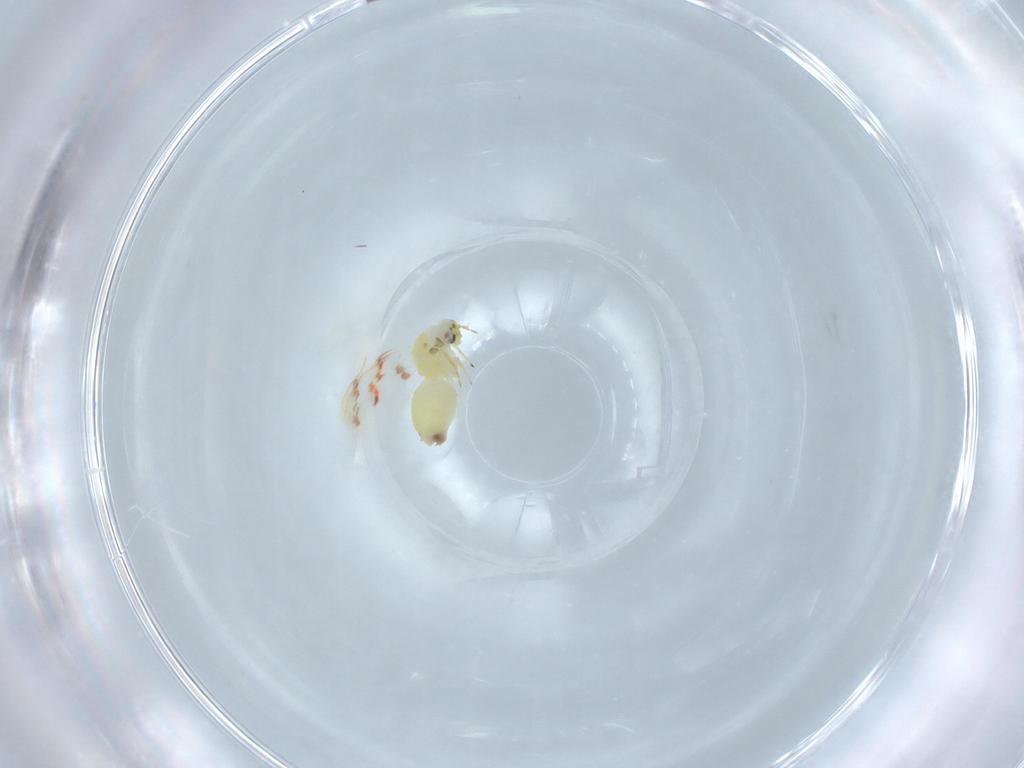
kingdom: Animalia
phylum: Arthropoda
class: Insecta
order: Hemiptera
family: Aleyrodidae
